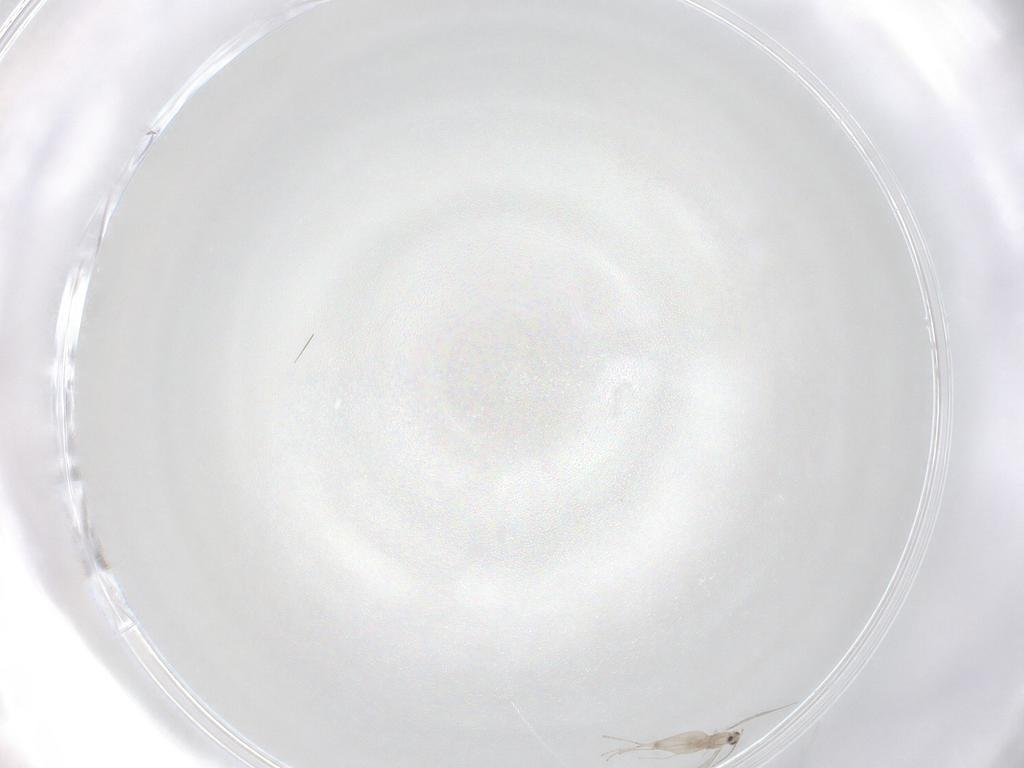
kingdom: Animalia
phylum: Arthropoda
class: Insecta
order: Diptera
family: Cecidomyiidae
